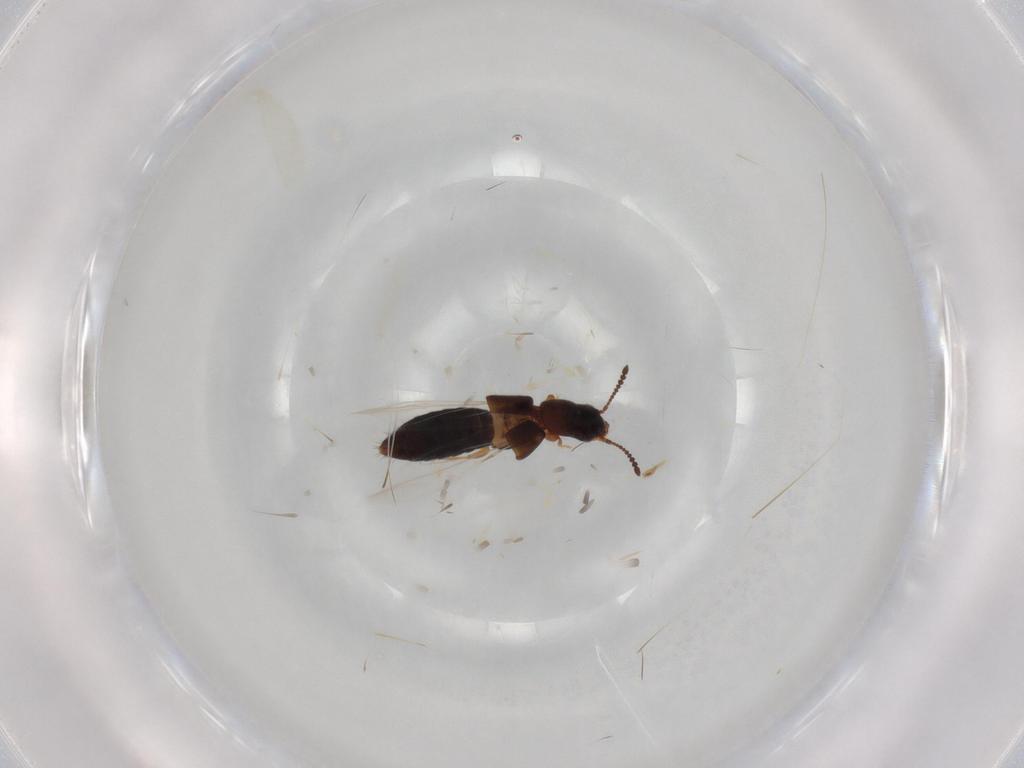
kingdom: Animalia
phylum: Arthropoda
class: Insecta
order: Coleoptera
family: Staphylinidae
